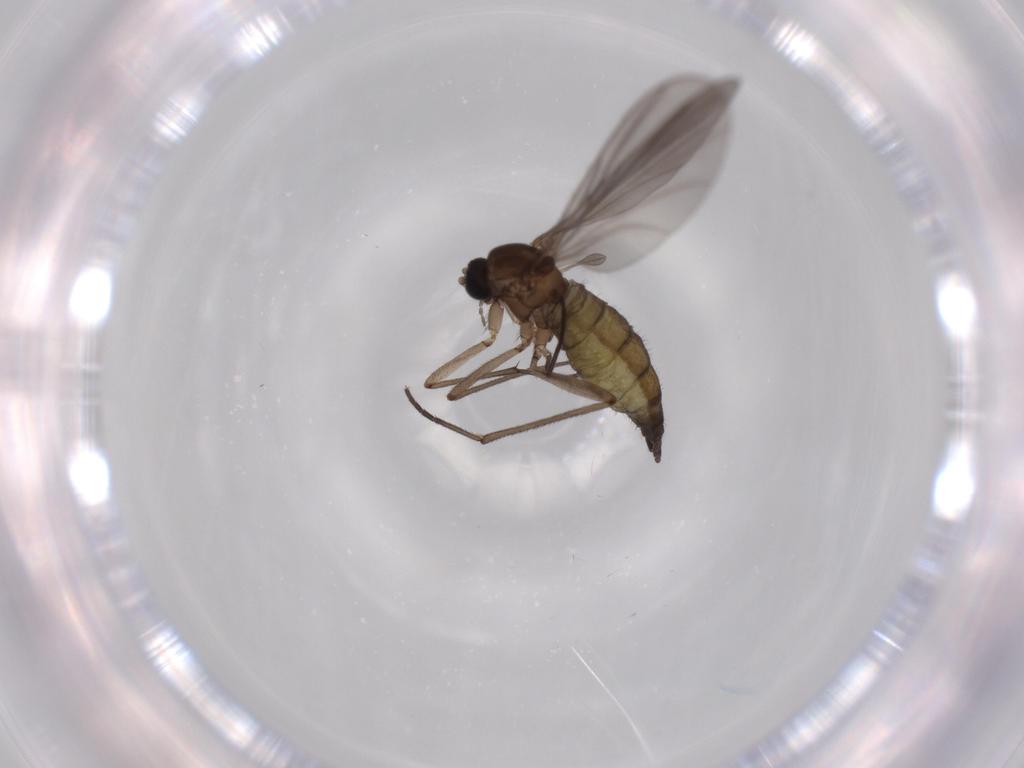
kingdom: Animalia
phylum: Arthropoda
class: Insecta
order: Diptera
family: Sciaridae
